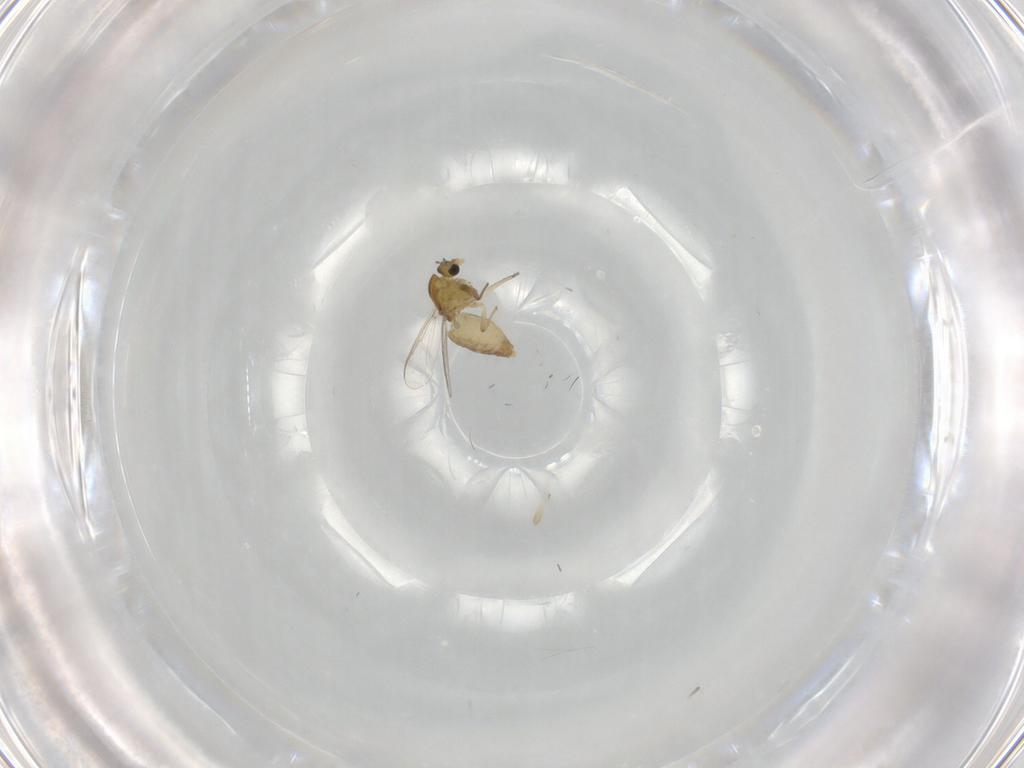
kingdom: Animalia
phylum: Arthropoda
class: Insecta
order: Diptera
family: Chironomidae
